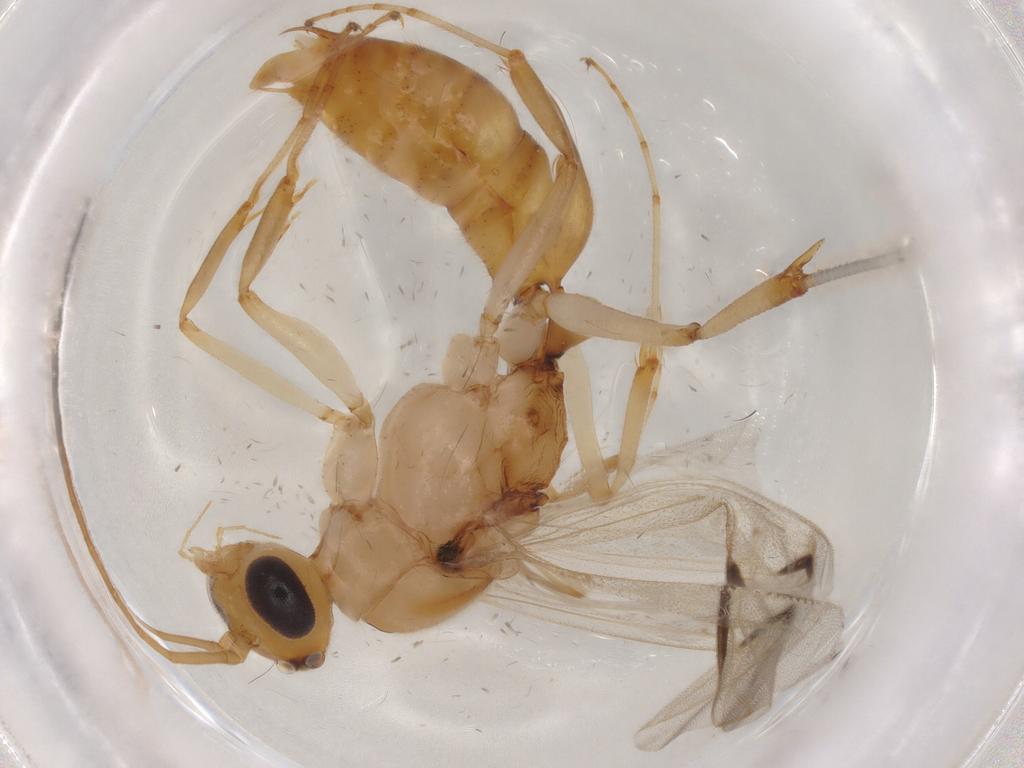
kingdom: Animalia
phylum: Arthropoda
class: Insecta
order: Hymenoptera
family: Formicidae
